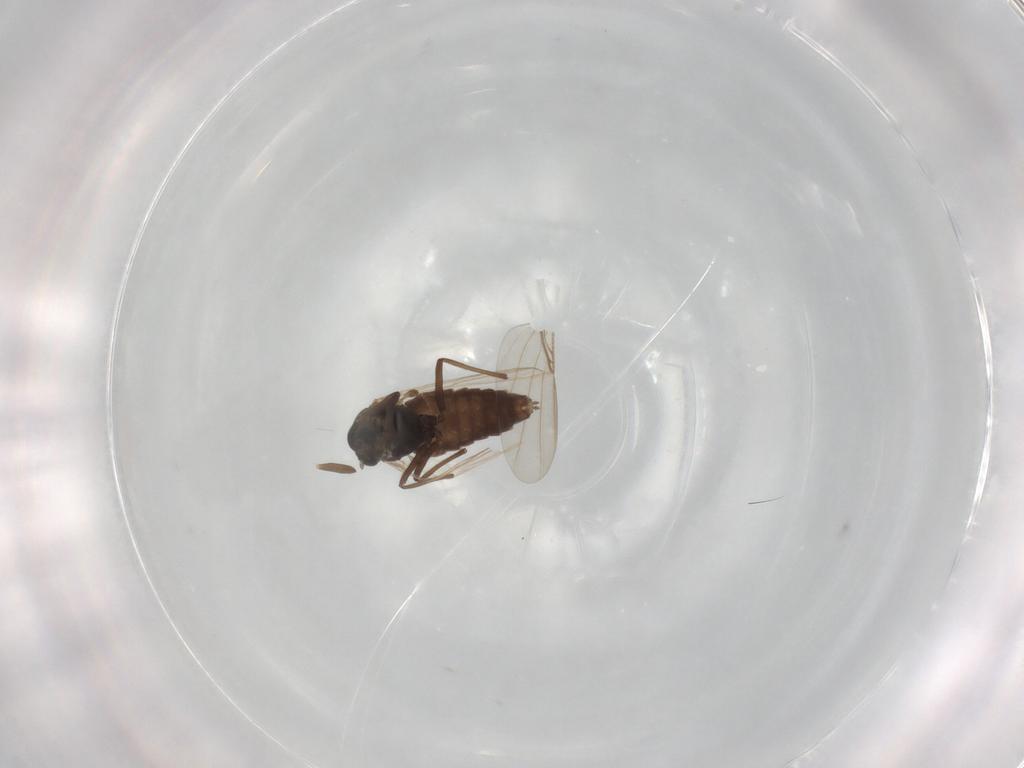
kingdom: Animalia
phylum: Arthropoda
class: Insecta
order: Diptera
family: Chironomidae
